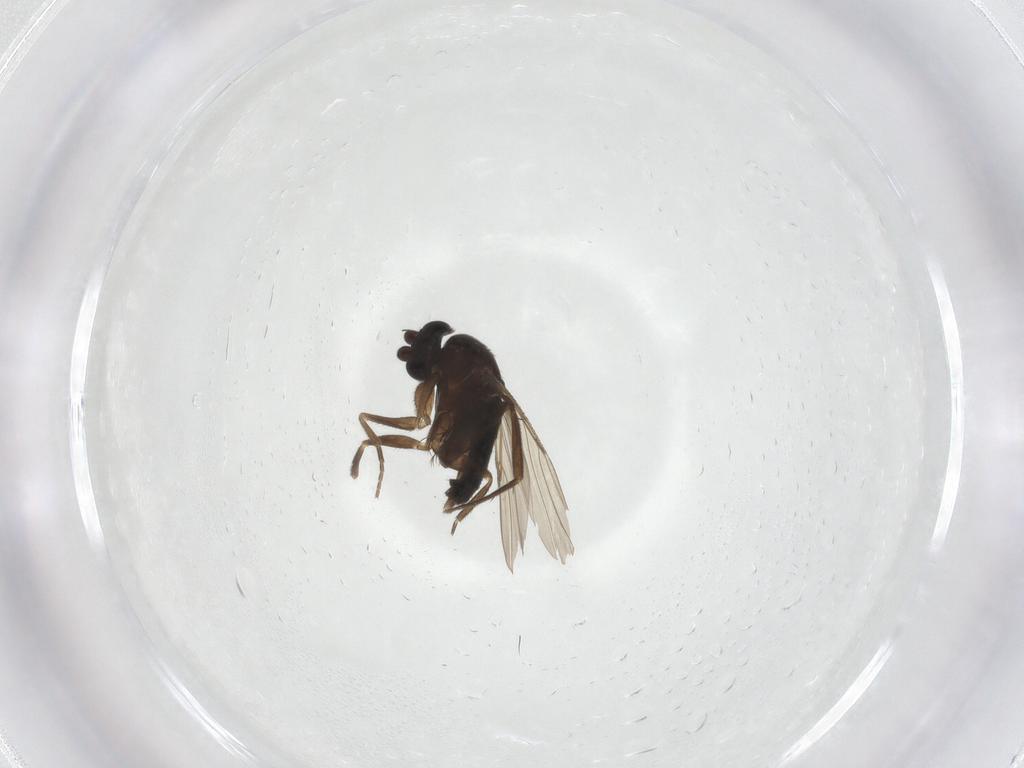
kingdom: Animalia
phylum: Arthropoda
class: Insecta
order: Diptera
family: Phoridae
